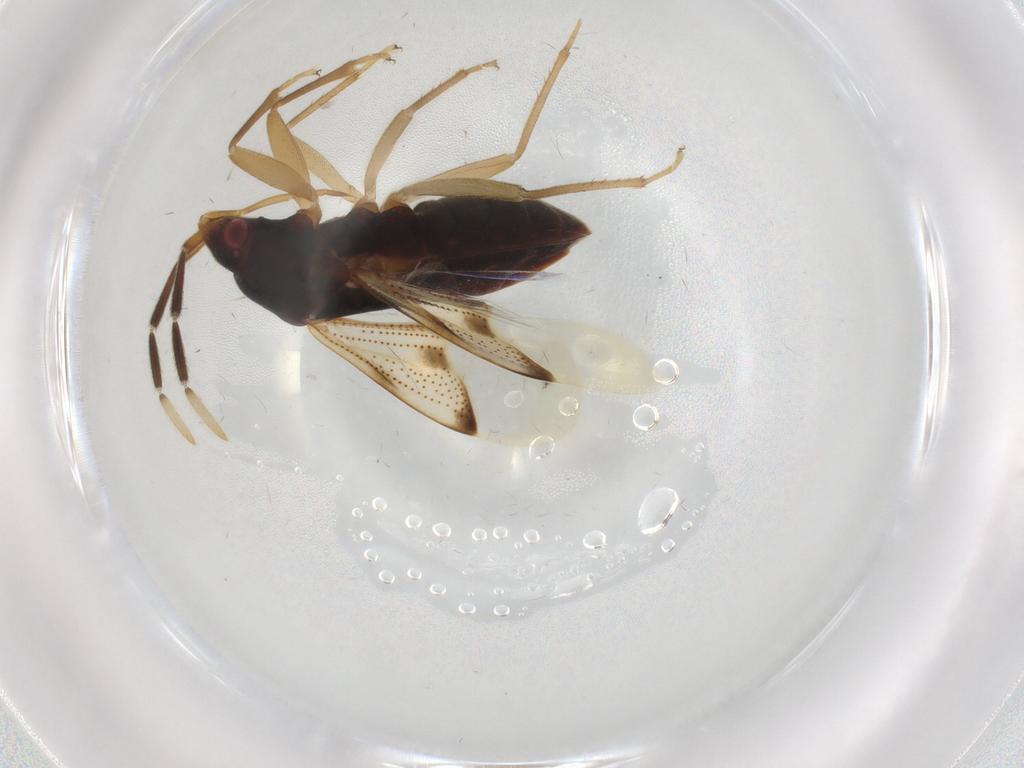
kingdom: Animalia
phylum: Arthropoda
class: Insecta
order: Hemiptera
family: Rhyparochromidae
